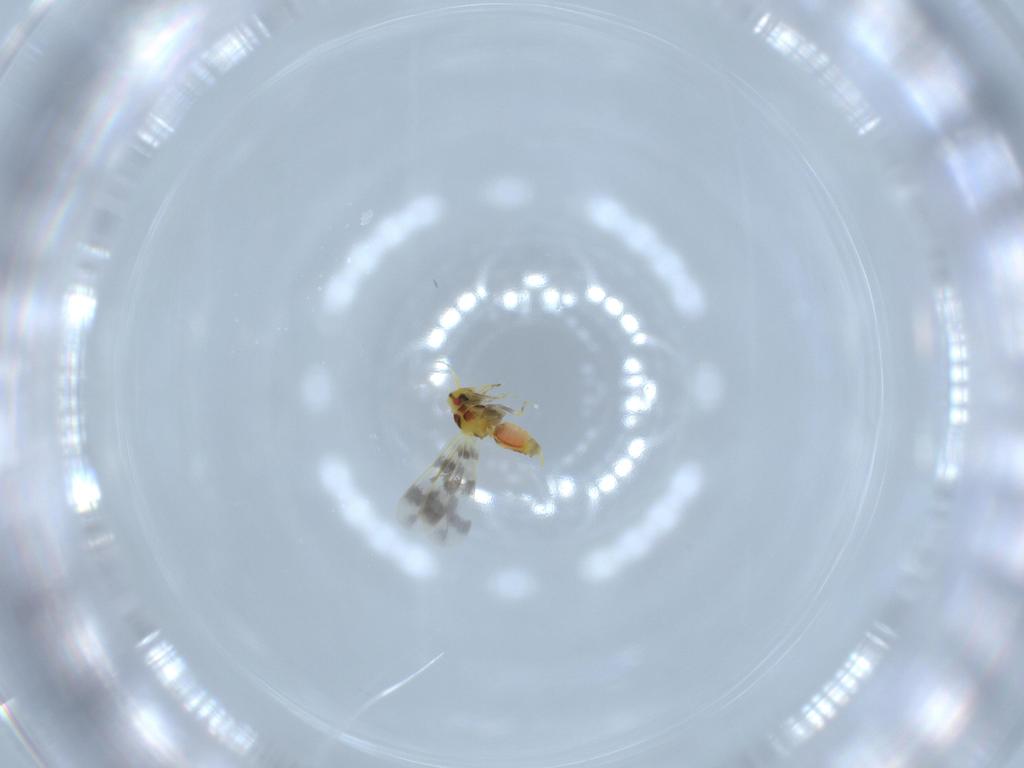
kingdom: Animalia
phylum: Arthropoda
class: Insecta
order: Hemiptera
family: Aleyrodidae
